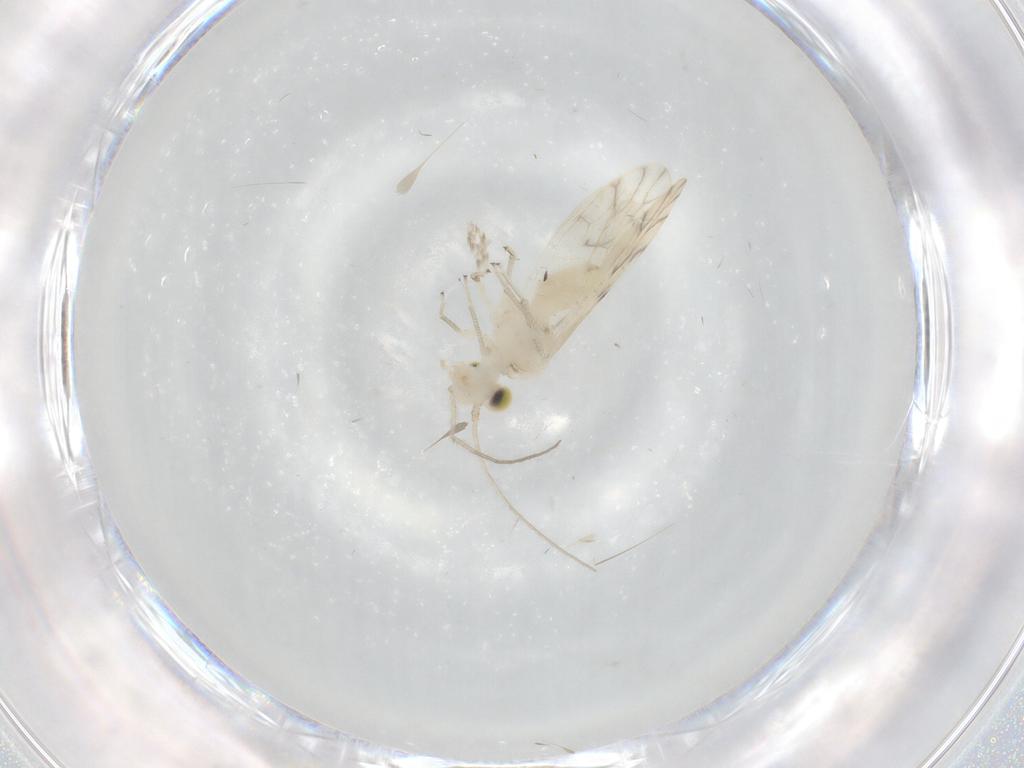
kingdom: Animalia
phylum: Arthropoda
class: Insecta
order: Psocodea
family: Caeciliusidae
